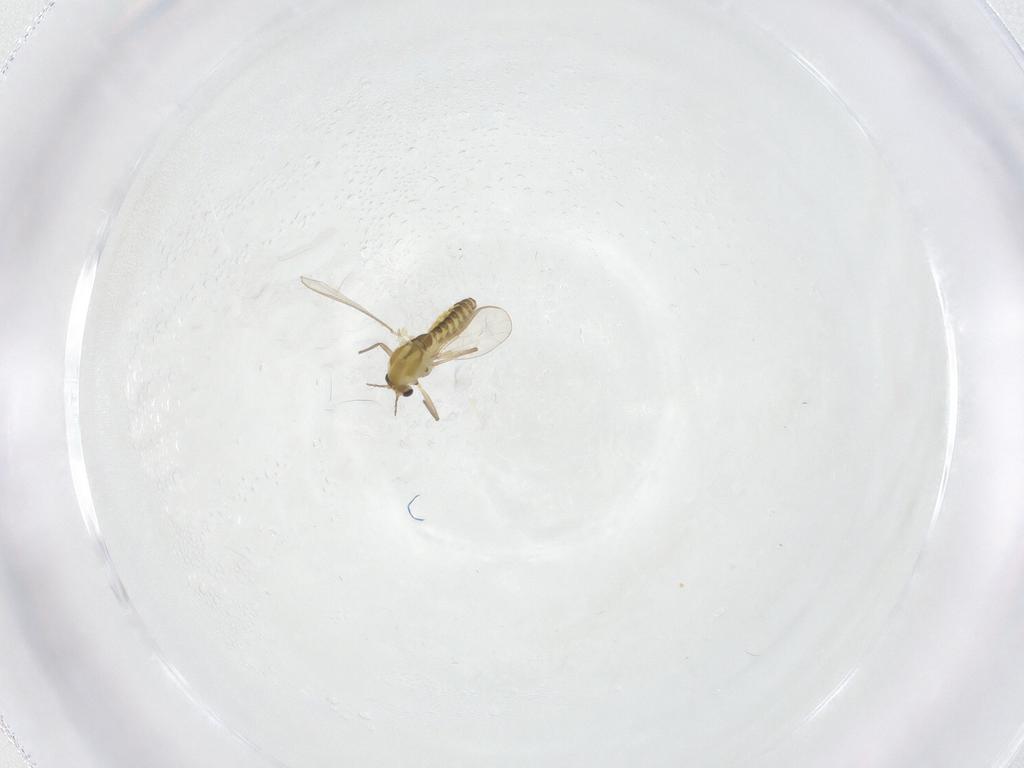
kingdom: Animalia
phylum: Arthropoda
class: Insecta
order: Diptera
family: Chironomidae
